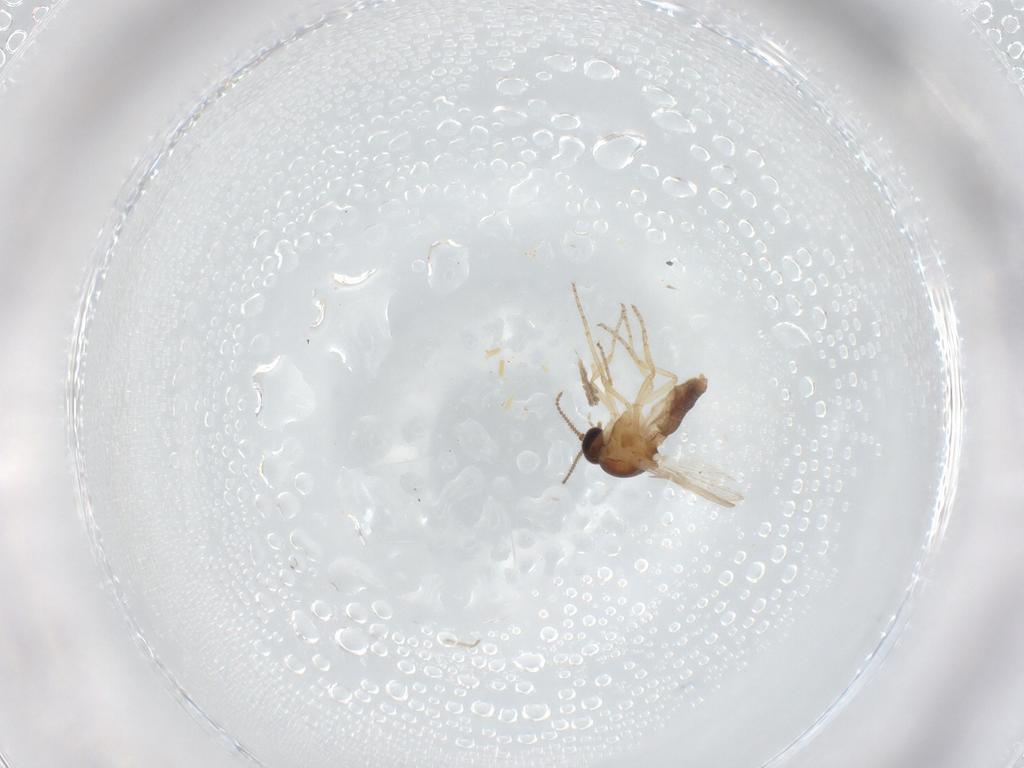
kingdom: Animalia
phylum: Arthropoda
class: Insecta
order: Diptera
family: Ceratopogonidae
